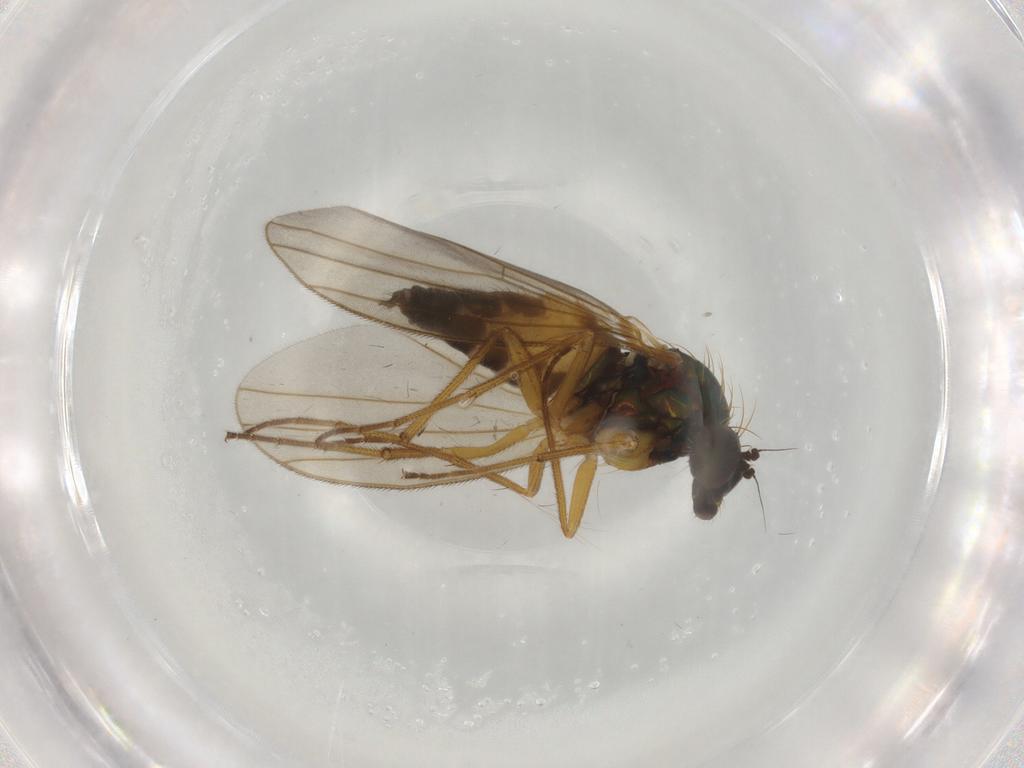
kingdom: Animalia
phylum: Arthropoda
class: Insecta
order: Diptera
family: Dolichopodidae
